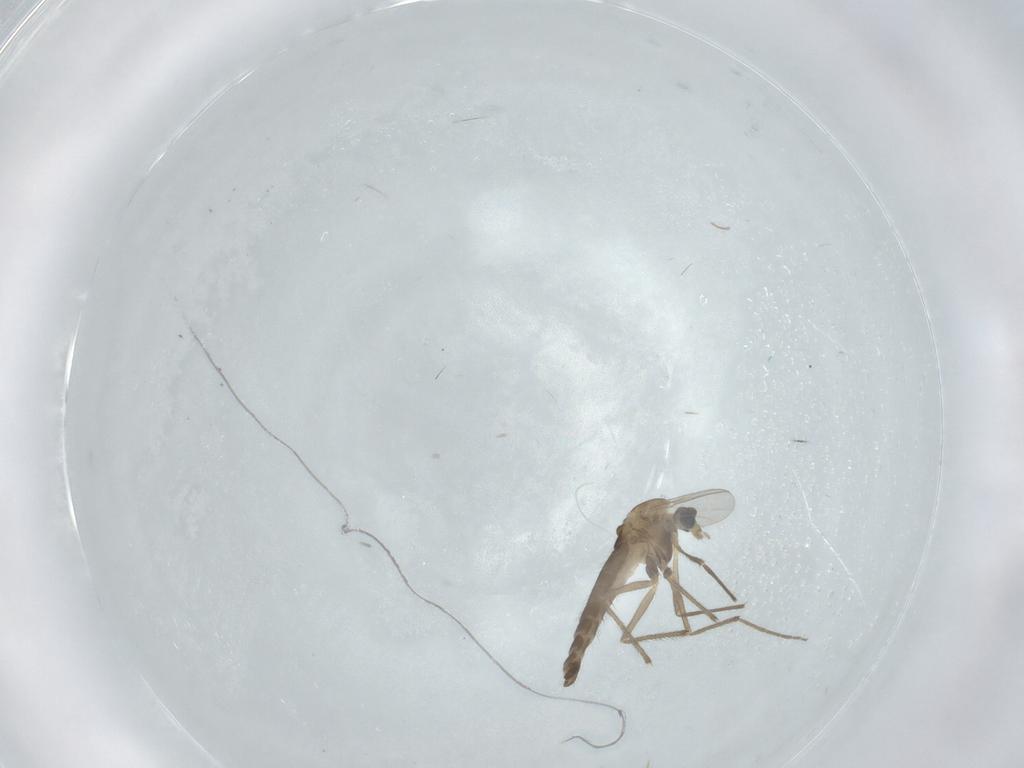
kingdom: Animalia
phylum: Arthropoda
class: Insecta
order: Diptera
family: Chironomidae
